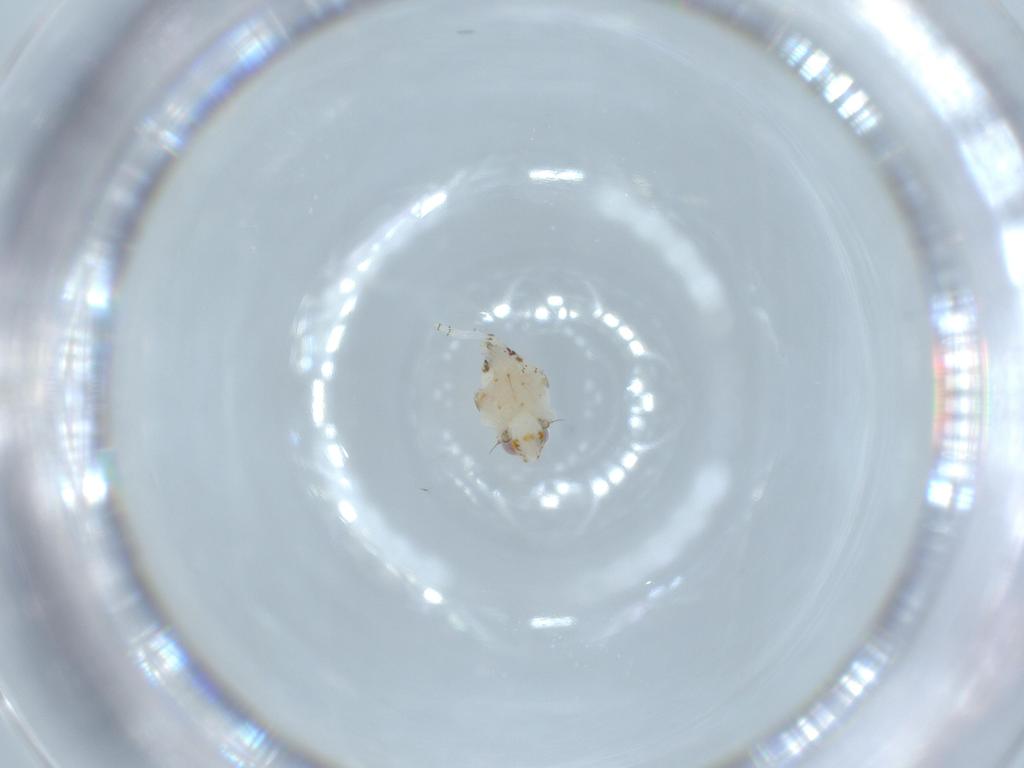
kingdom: Animalia
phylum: Arthropoda
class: Insecta
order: Hemiptera
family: Nogodinidae
